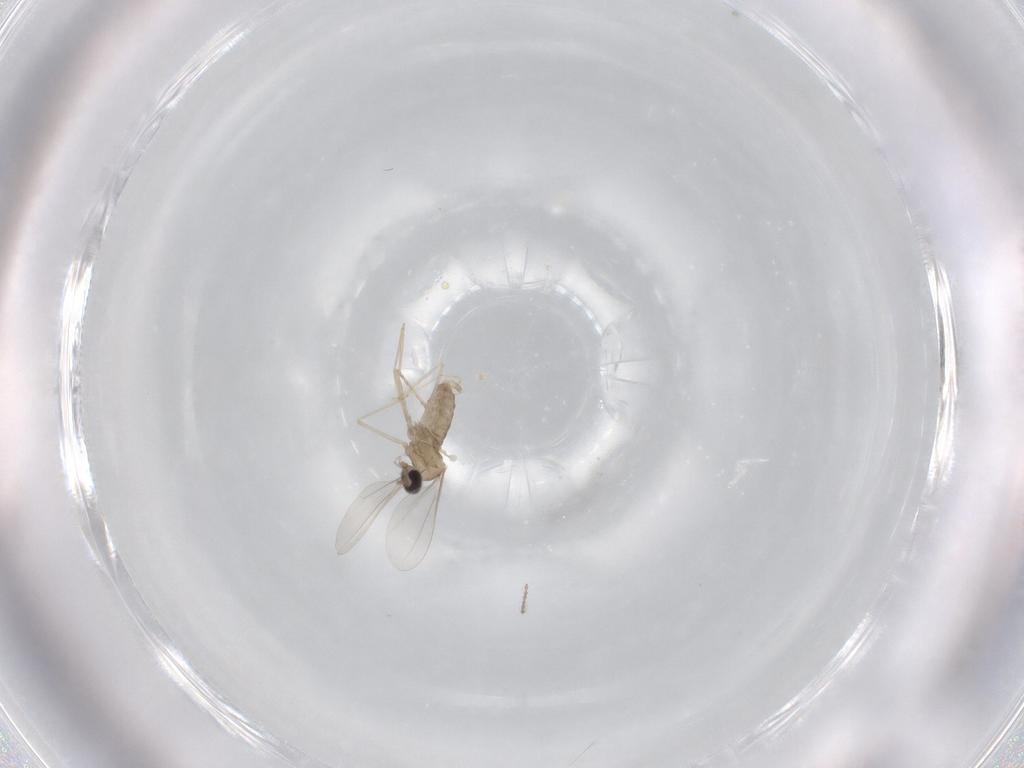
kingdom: Animalia
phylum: Arthropoda
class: Insecta
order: Diptera
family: Cecidomyiidae
